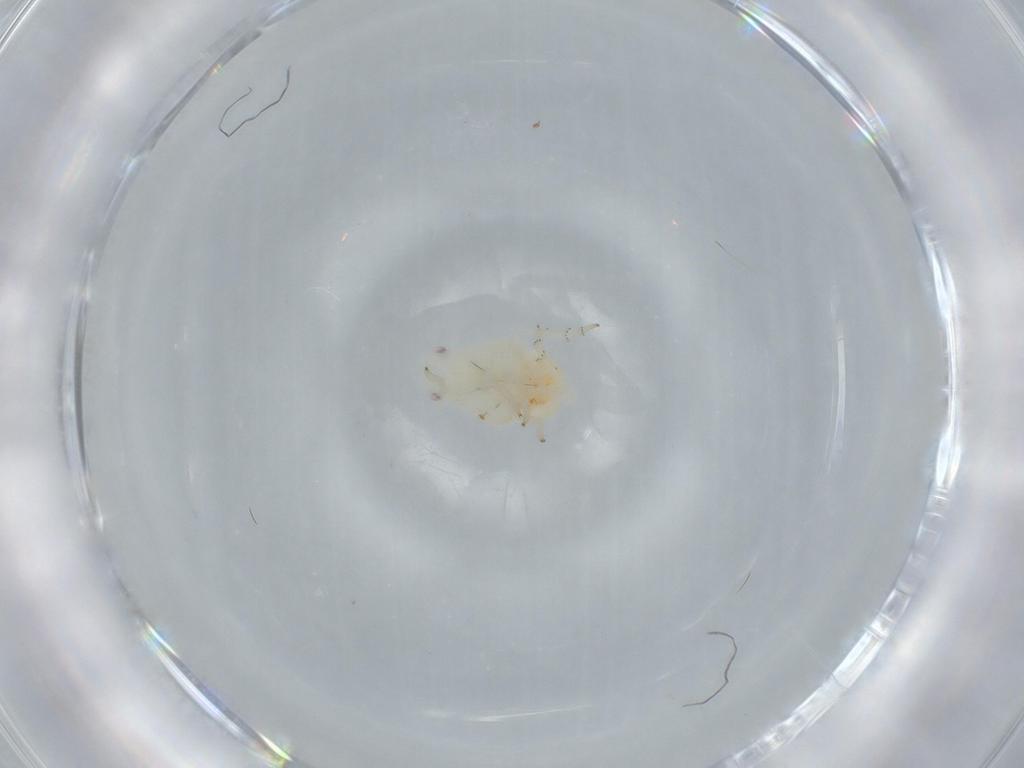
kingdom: Animalia
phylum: Arthropoda
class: Insecta
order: Hemiptera
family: Flatidae
